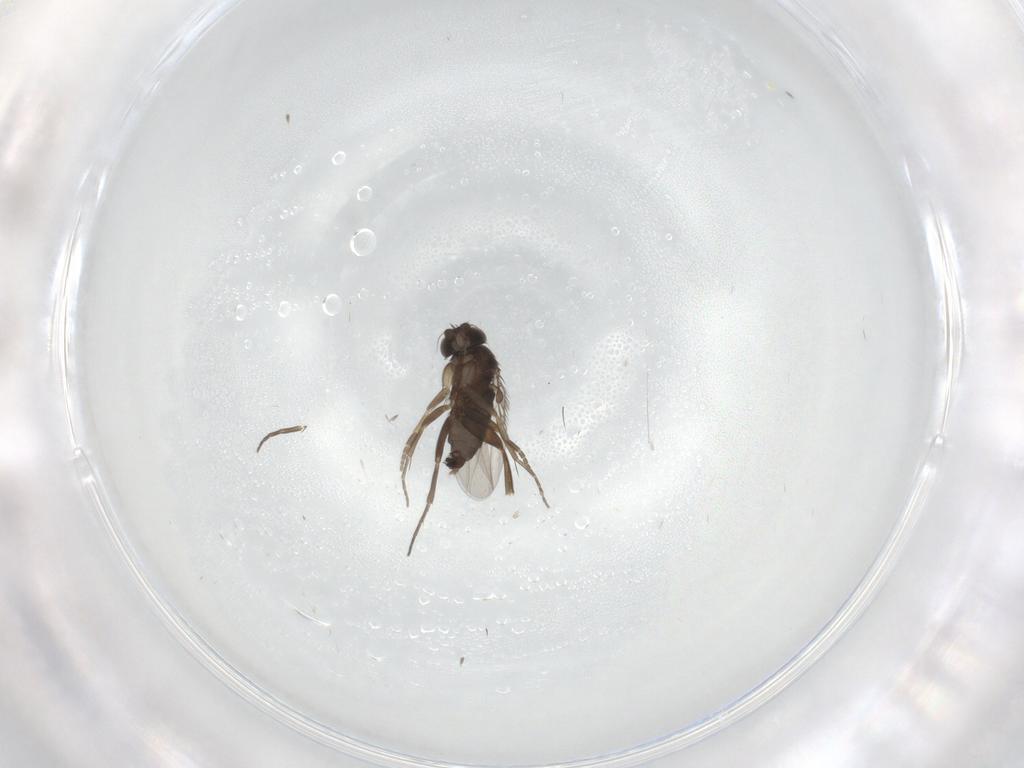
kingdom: Animalia
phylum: Arthropoda
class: Insecta
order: Diptera
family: Phoridae
